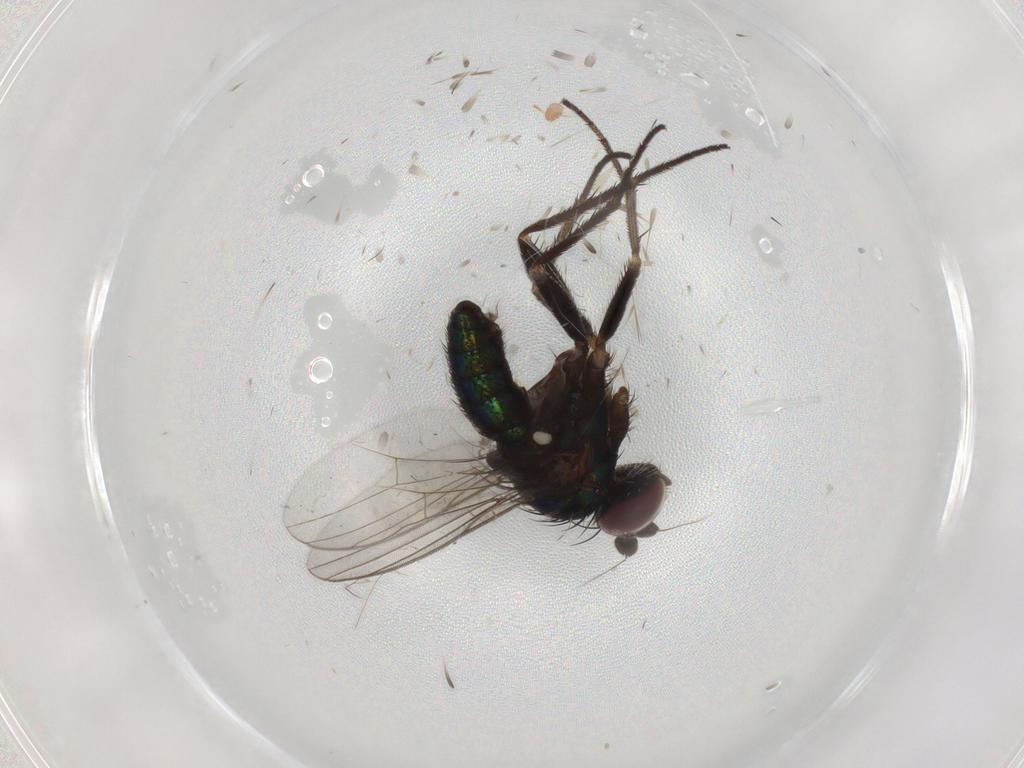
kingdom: Animalia
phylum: Arthropoda
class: Insecta
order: Diptera
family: Dolichopodidae
